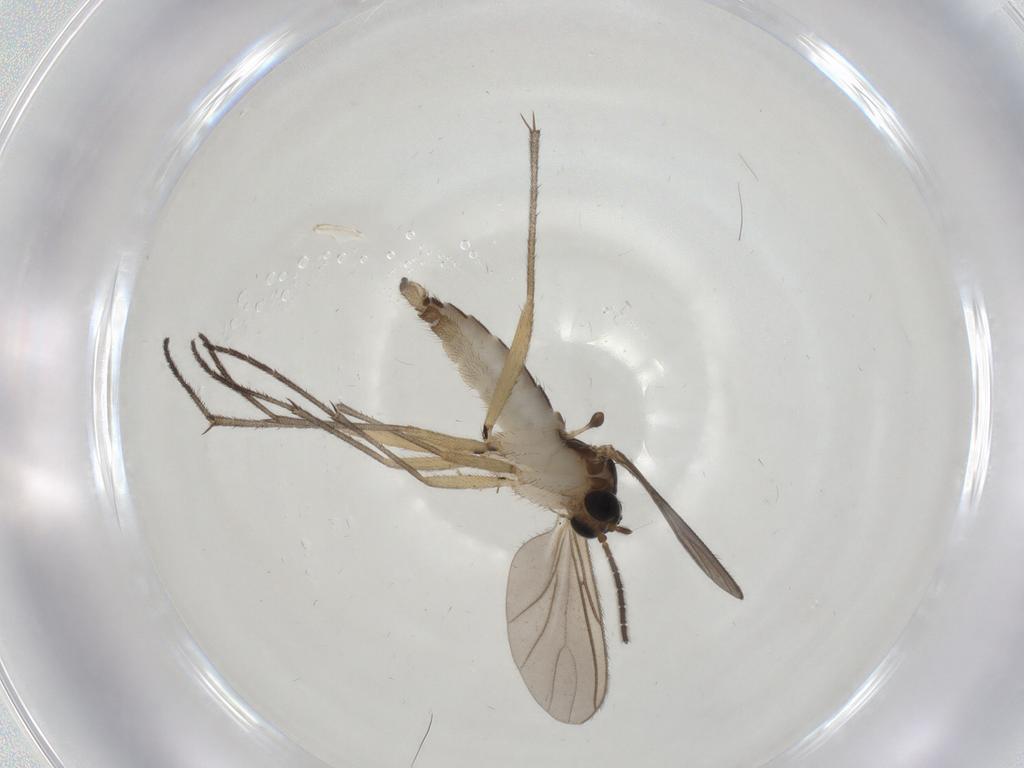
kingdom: Animalia
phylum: Arthropoda
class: Insecta
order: Diptera
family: Sciaridae
